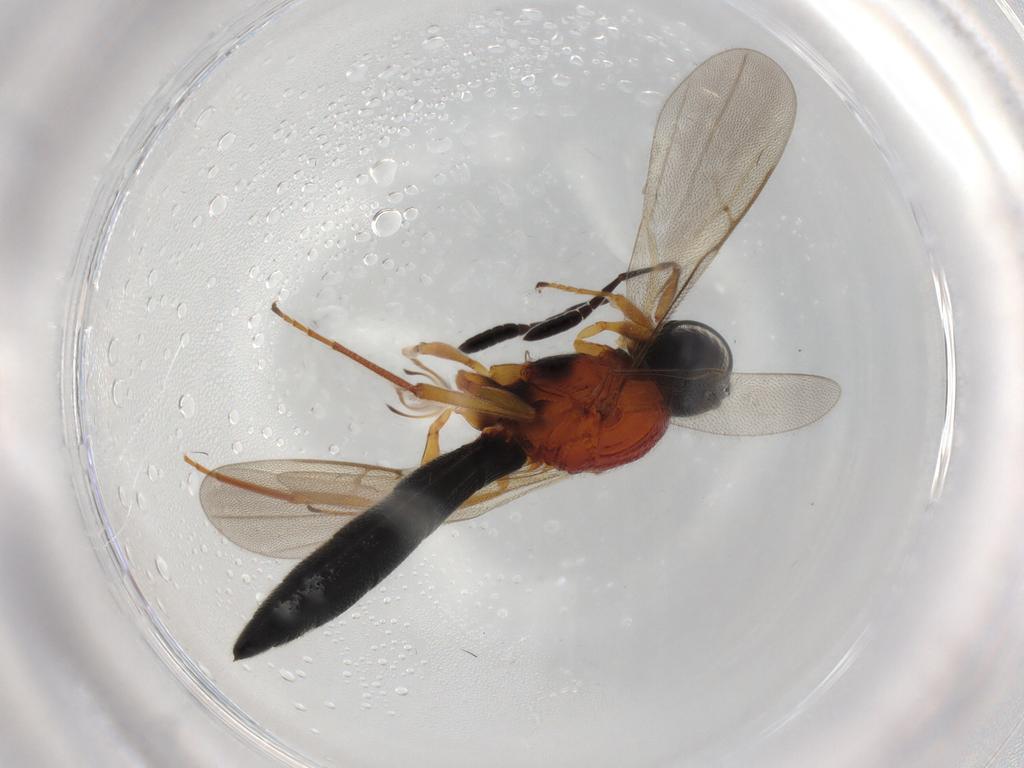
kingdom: Animalia
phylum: Arthropoda
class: Insecta
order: Hymenoptera
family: Mymaridae
